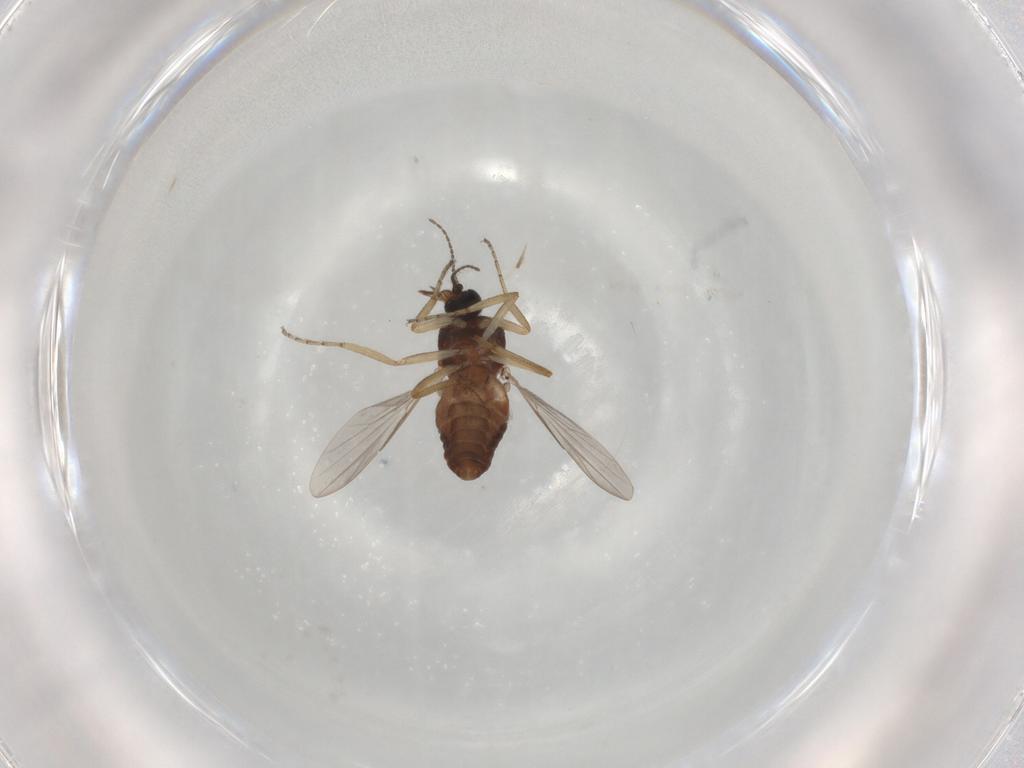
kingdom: Animalia
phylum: Arthropoda
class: Insecta
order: Diptera
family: Ceratopogonidae
